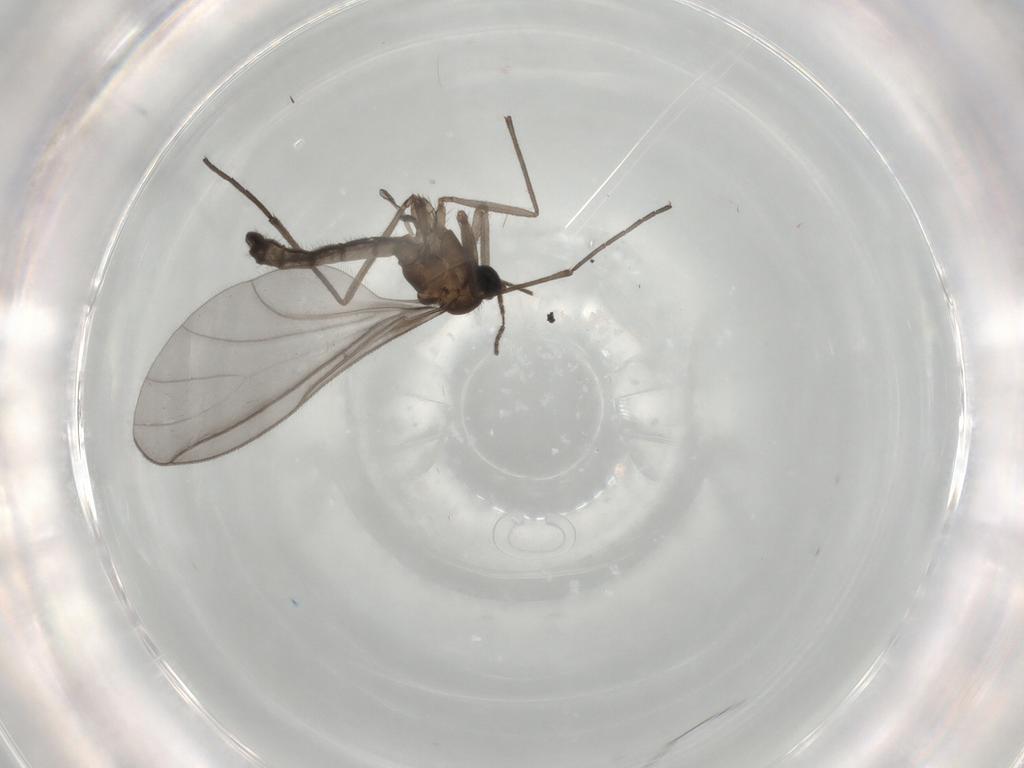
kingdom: Animalia
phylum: Arthropoda
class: Insecta
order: Diptera
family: Sciaridae
